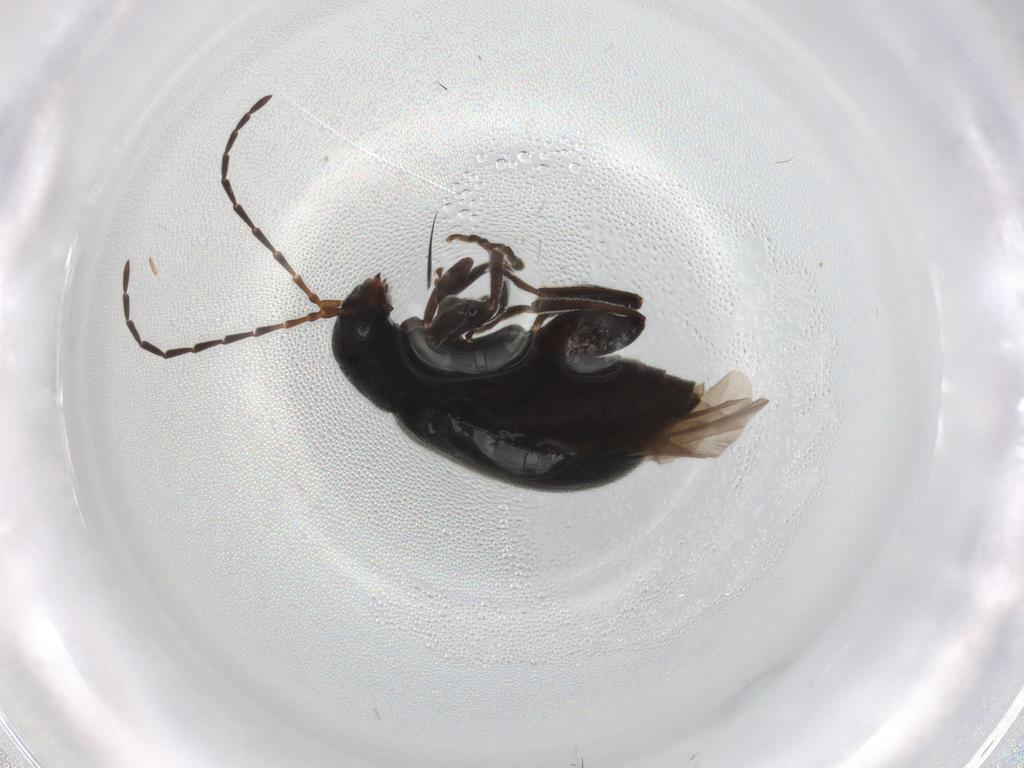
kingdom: Animalia
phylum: Arthropoda
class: Insecta
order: Coleoptera
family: Chrysomelidae
